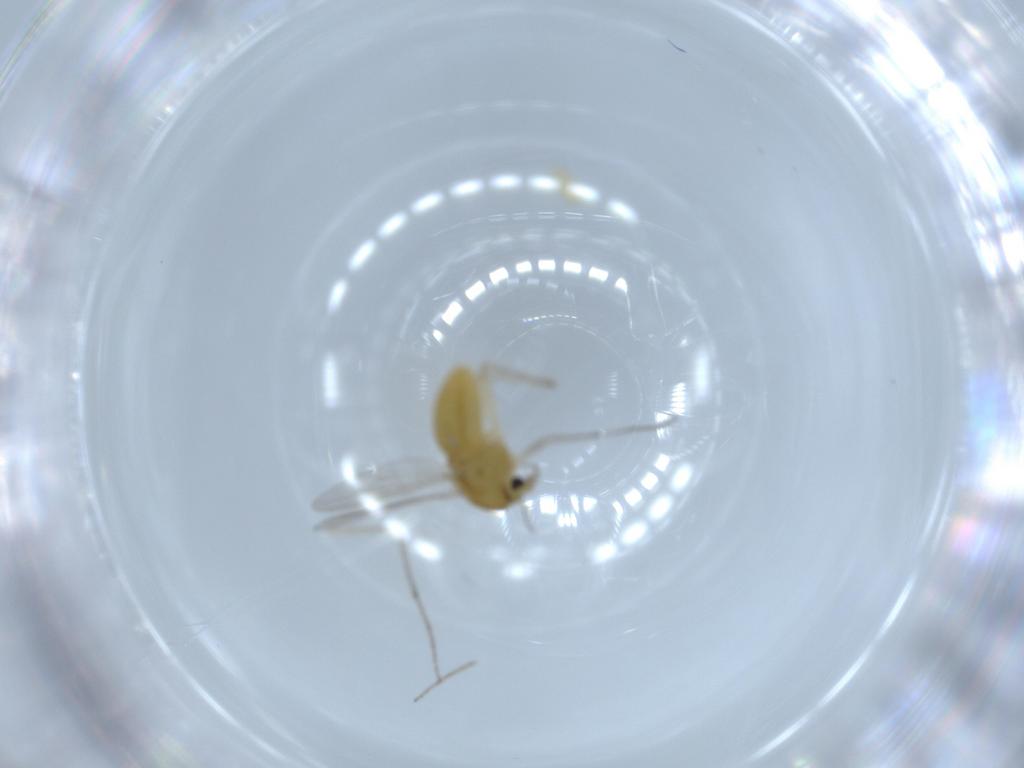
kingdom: Animalia
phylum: Arthropoda
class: Insecta
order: Diptera
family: Chironomidae
